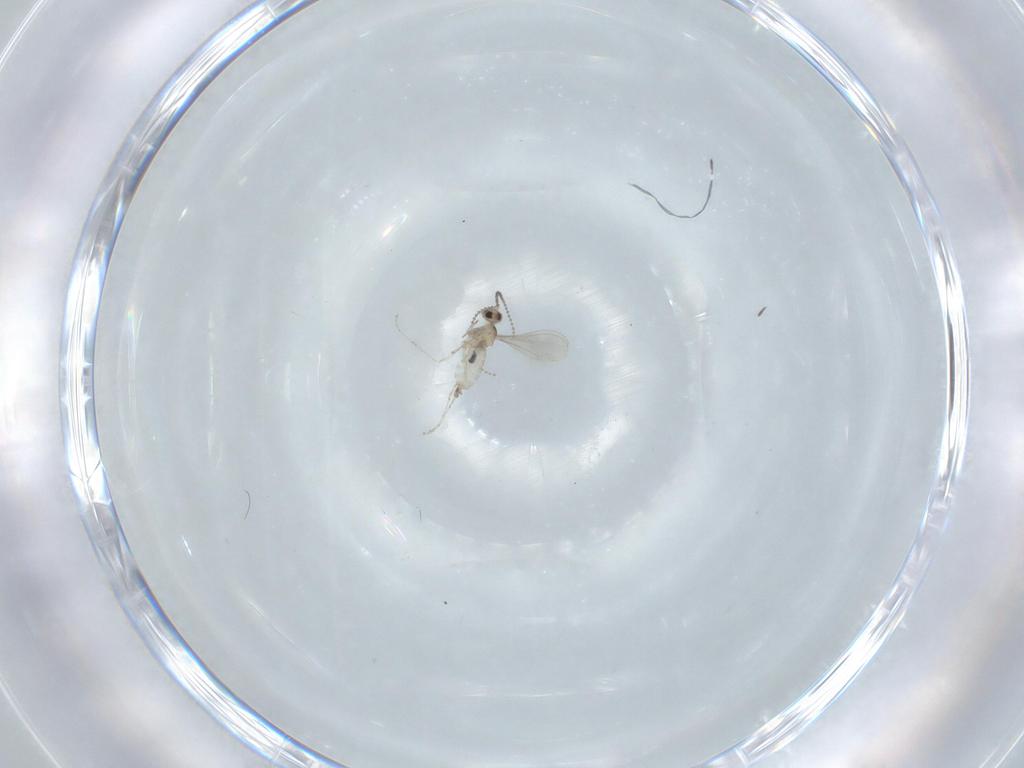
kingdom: Animalia
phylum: Arthropoda
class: Insecta
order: Diptera
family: Cecidomyiidae
